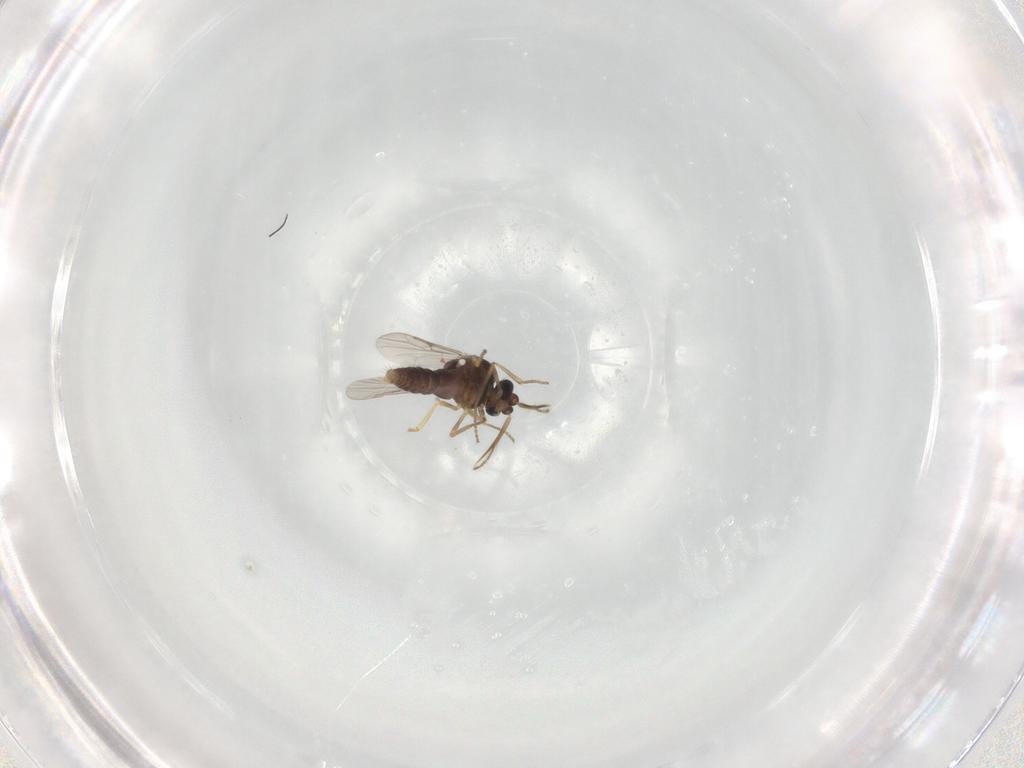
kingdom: Animalia
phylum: Arthropoda
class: Insecta
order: Diptera
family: Ceratopogonidae
